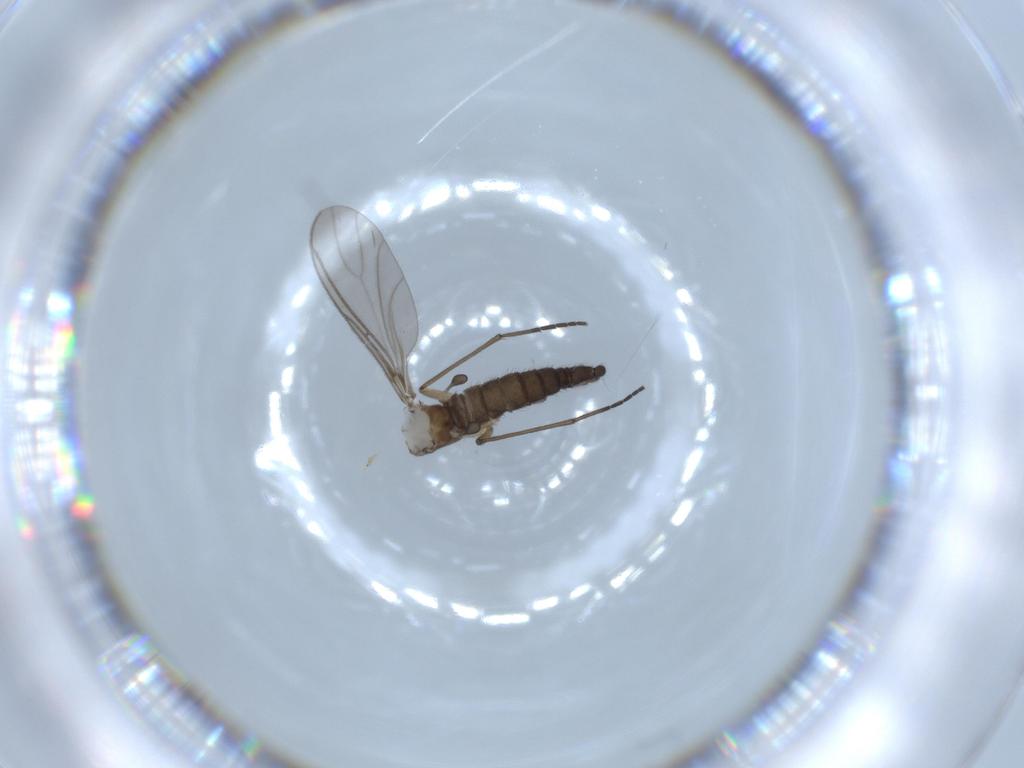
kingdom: Animalia
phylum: Arthropoda
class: Insecta
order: Diptera
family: Sciaridae
